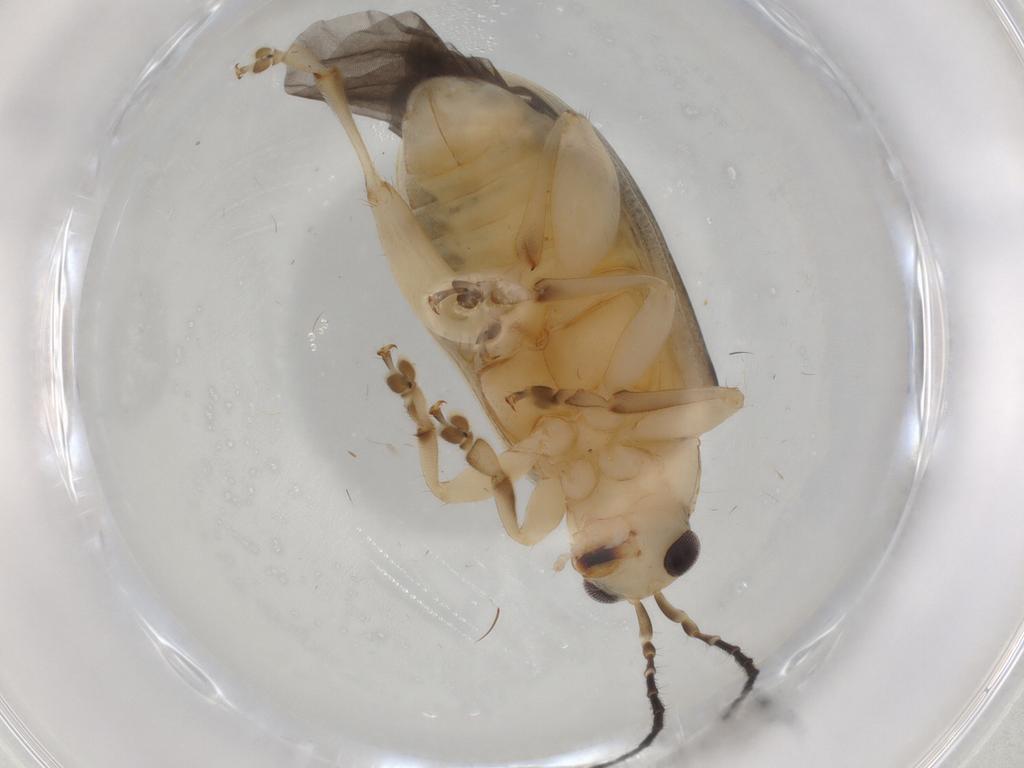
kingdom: Animalia
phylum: Arthropoda
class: Insecta
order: Coleoptera
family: Chrysomelidae
